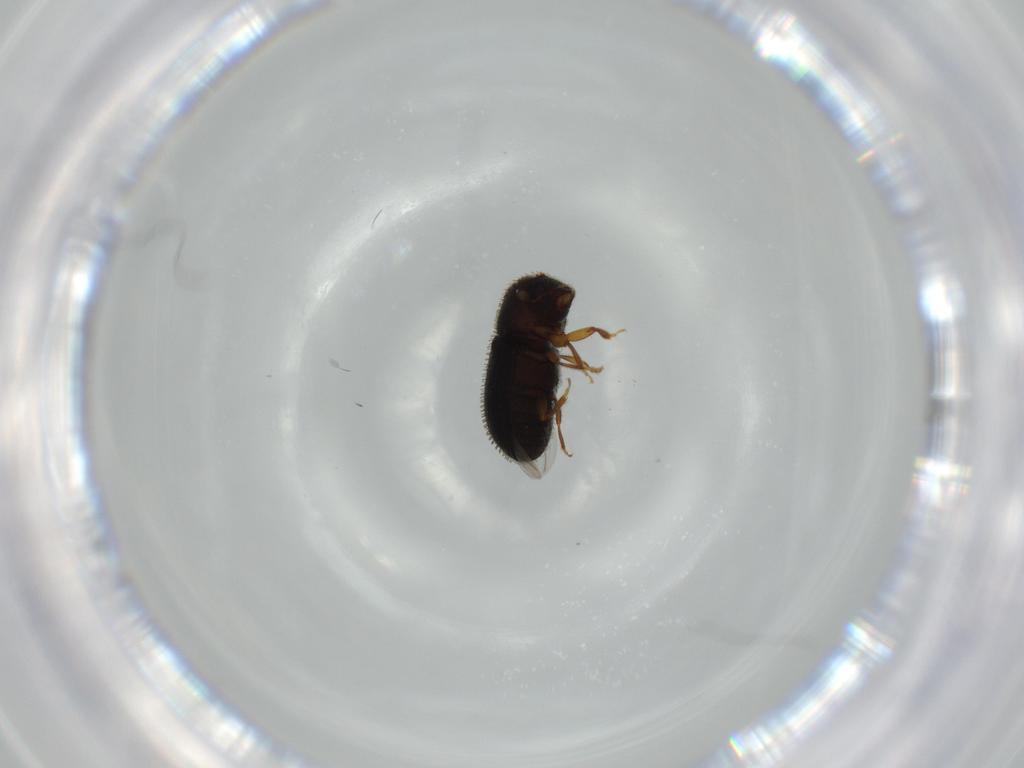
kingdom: Animalia
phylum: Arthropoda
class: Insecta
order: Coleoptera
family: Curculionidae
